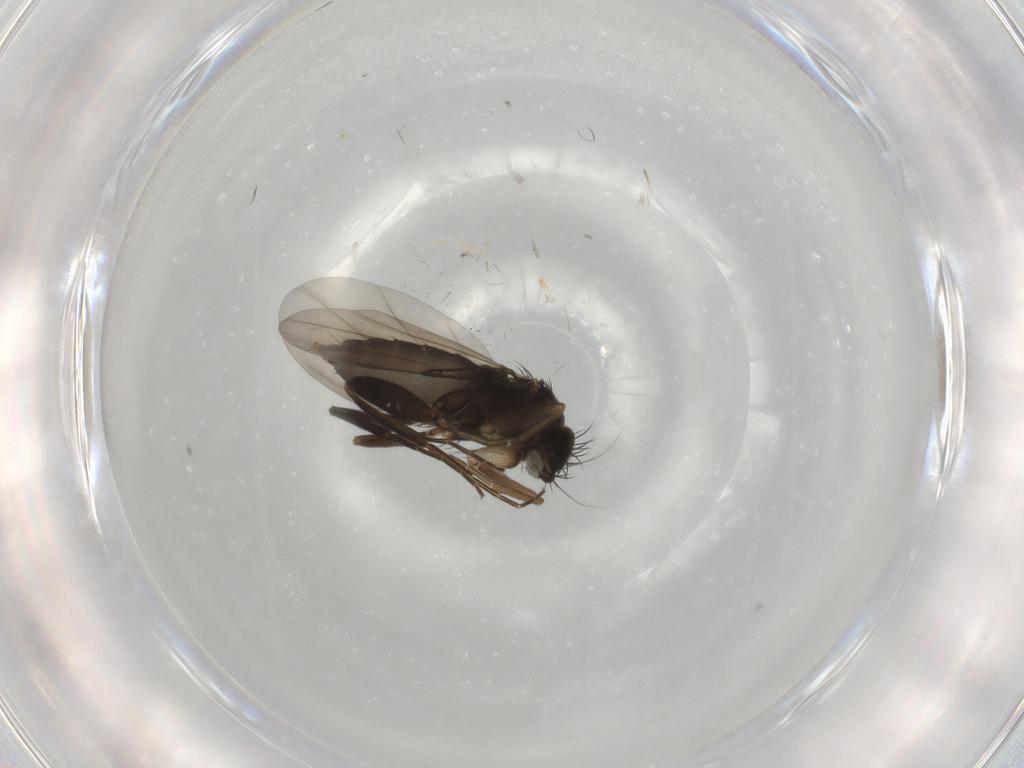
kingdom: Animalia
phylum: Arthropoda
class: Insecta
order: Diptera
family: Phoridae
